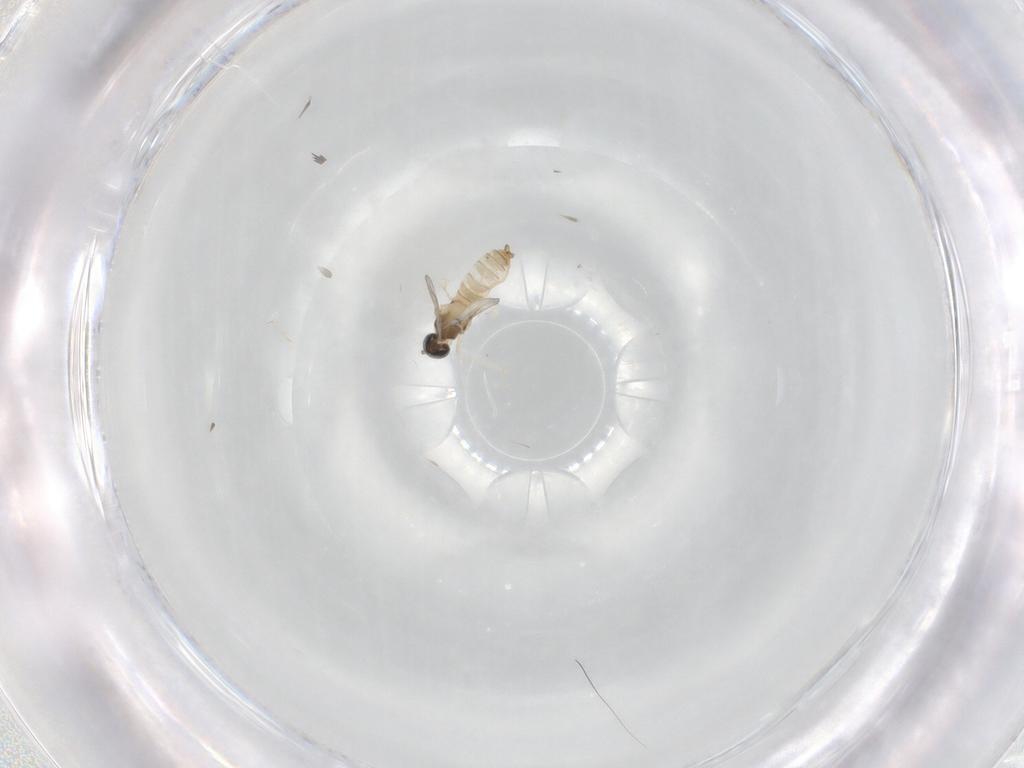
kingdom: Animalia
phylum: Arthropoda
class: Insecta
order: Diptera
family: Cecidomyiidae
